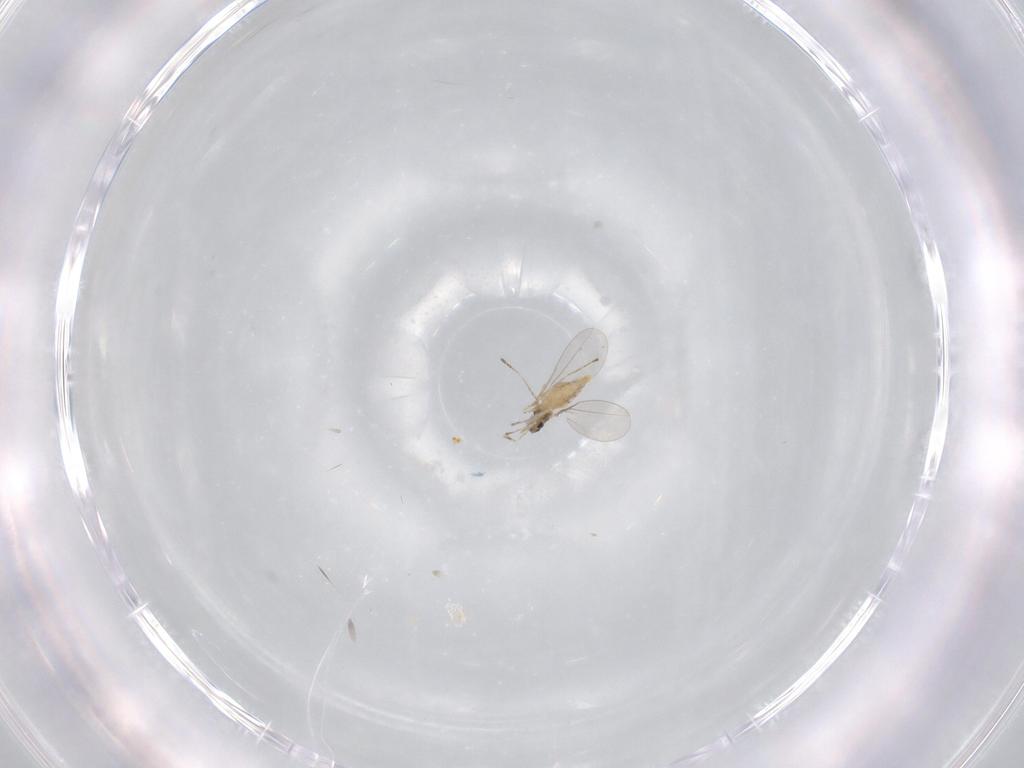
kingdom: Animalia
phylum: Arthropoda
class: Insecta
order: Diptera
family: Cecidomyiidae
